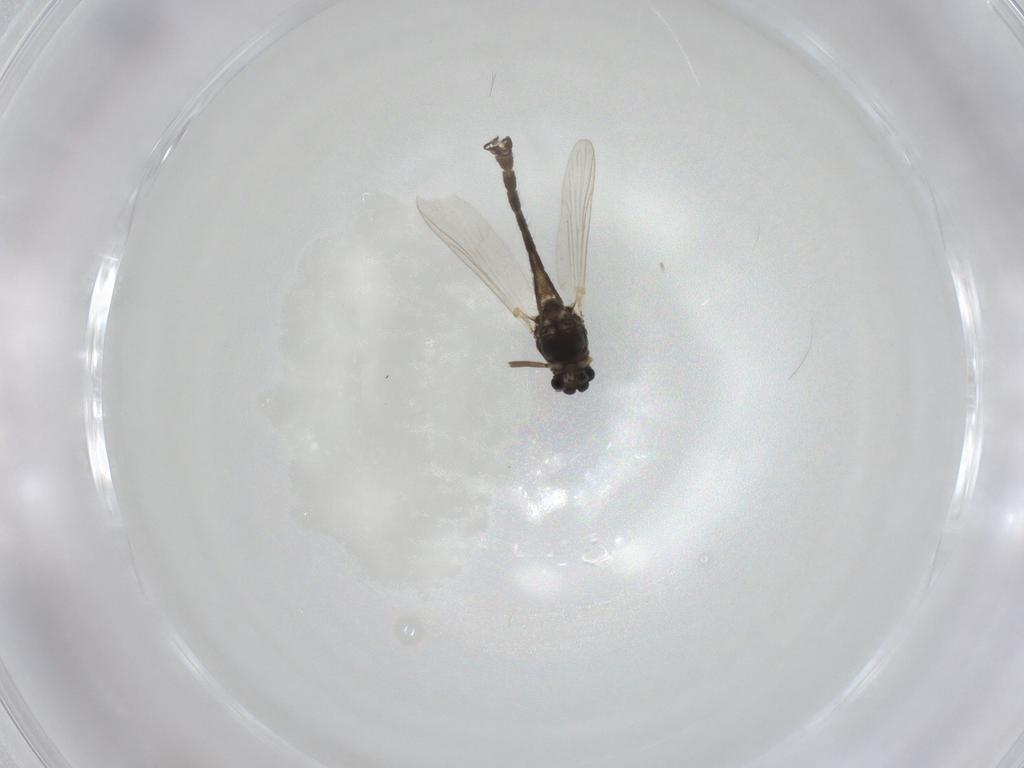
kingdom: Animalia
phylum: Arthropoda
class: Insecta
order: Diptera
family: Chironomidae
